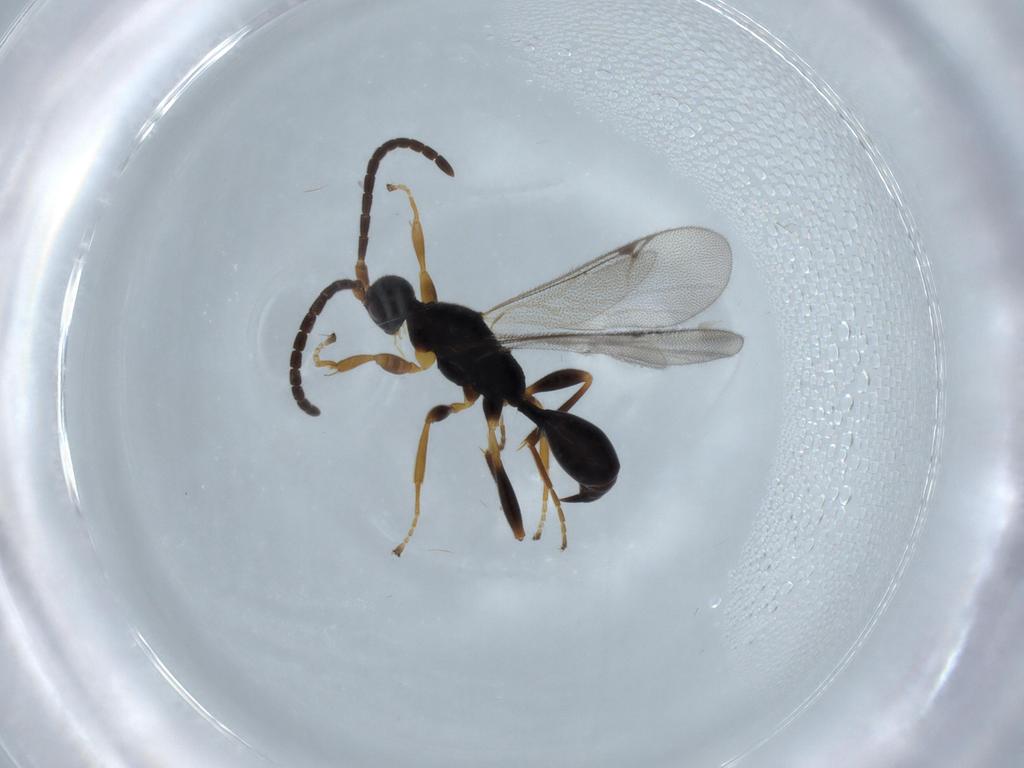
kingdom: Animalia
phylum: Arthropoda
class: Insecta
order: Hymenoptera
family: Proctotrupidae
